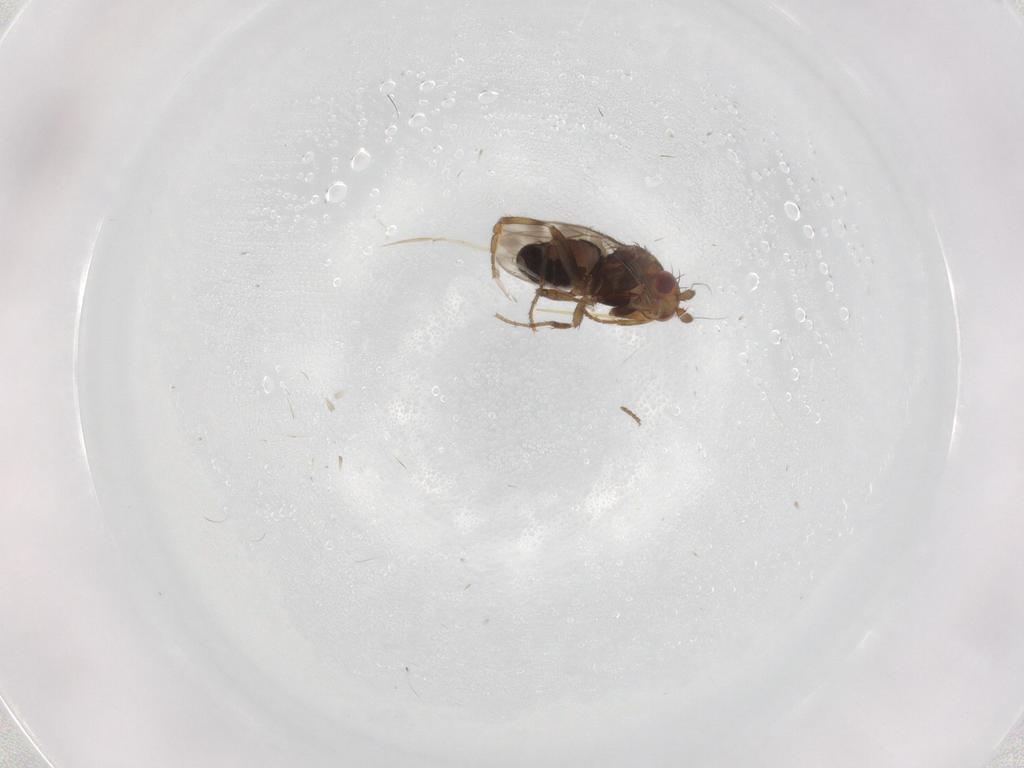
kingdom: Animalia
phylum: Arthropoda
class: Insecta
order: Diptera
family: Sphaeroceridae
